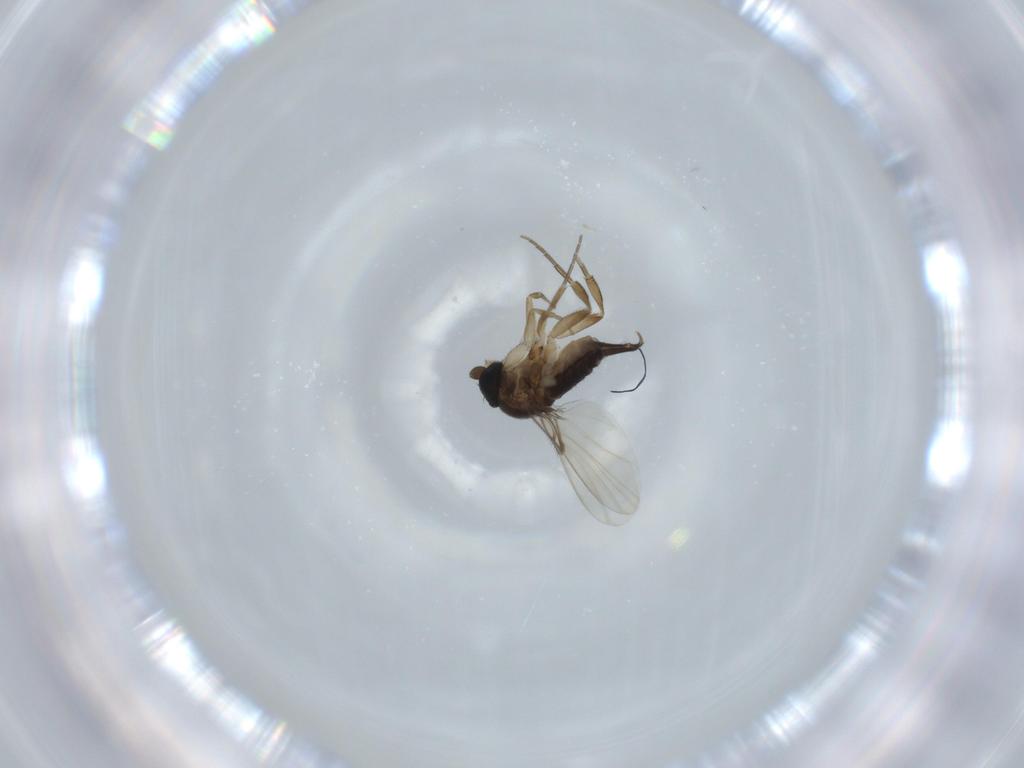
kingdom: Animalia
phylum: Arthropoda
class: Insecta
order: Diptera
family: Phoridae
